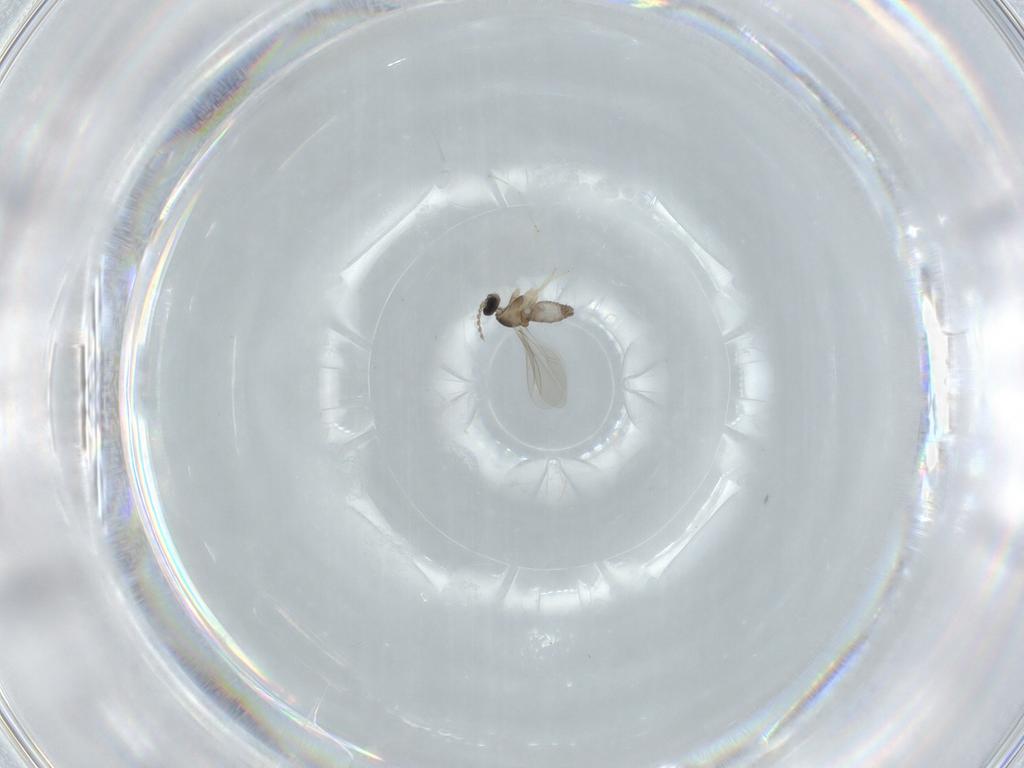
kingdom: Animalia
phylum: Arthropoda
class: Insecta
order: Diptera
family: Cecidomyiidae
